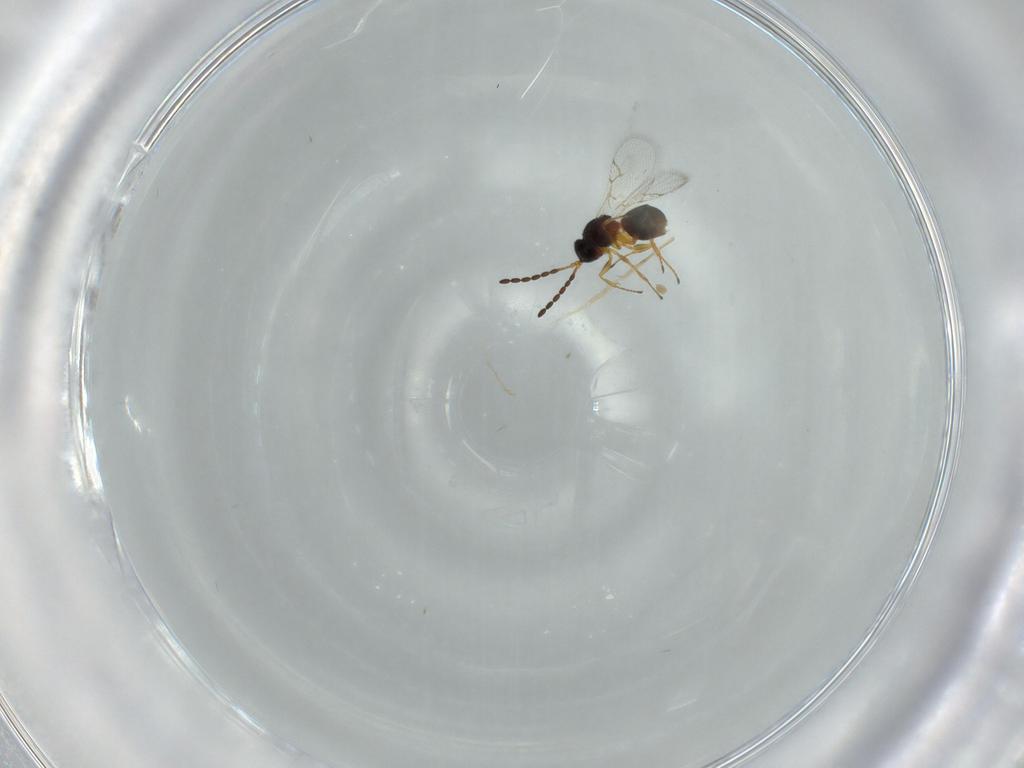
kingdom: Animalia
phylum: Arthropoda
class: Insecta
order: Hymenoptera
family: Figitidae
